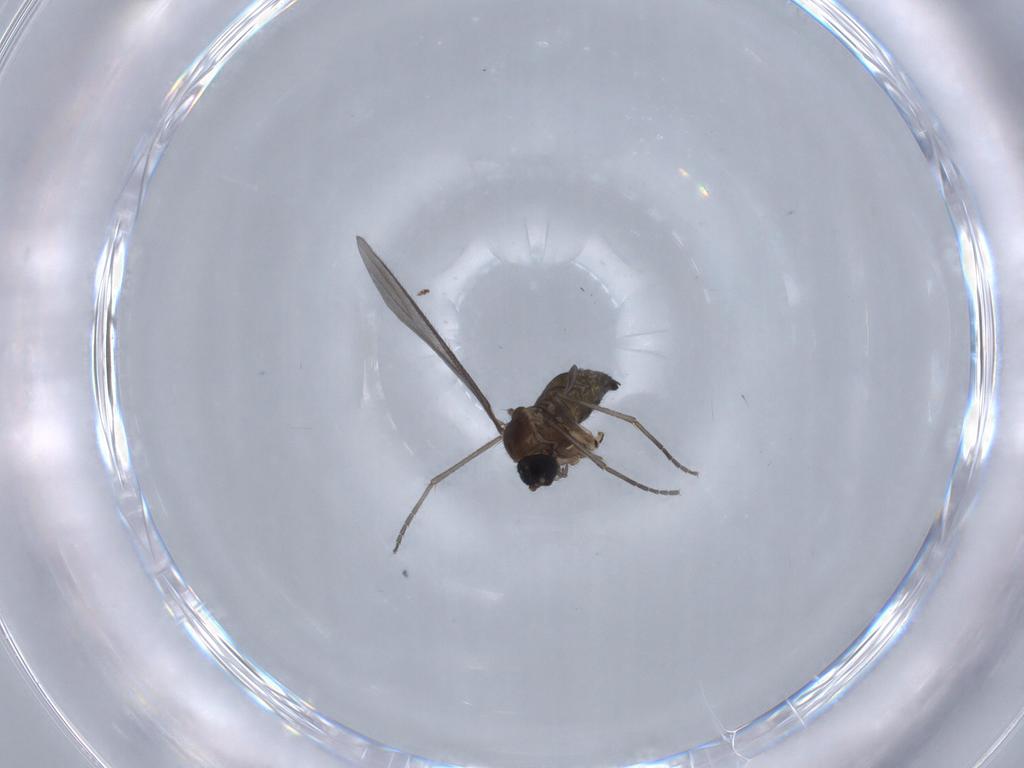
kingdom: Animalia
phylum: Arthropoda
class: Insecta
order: Diptera
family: Sciaridae
